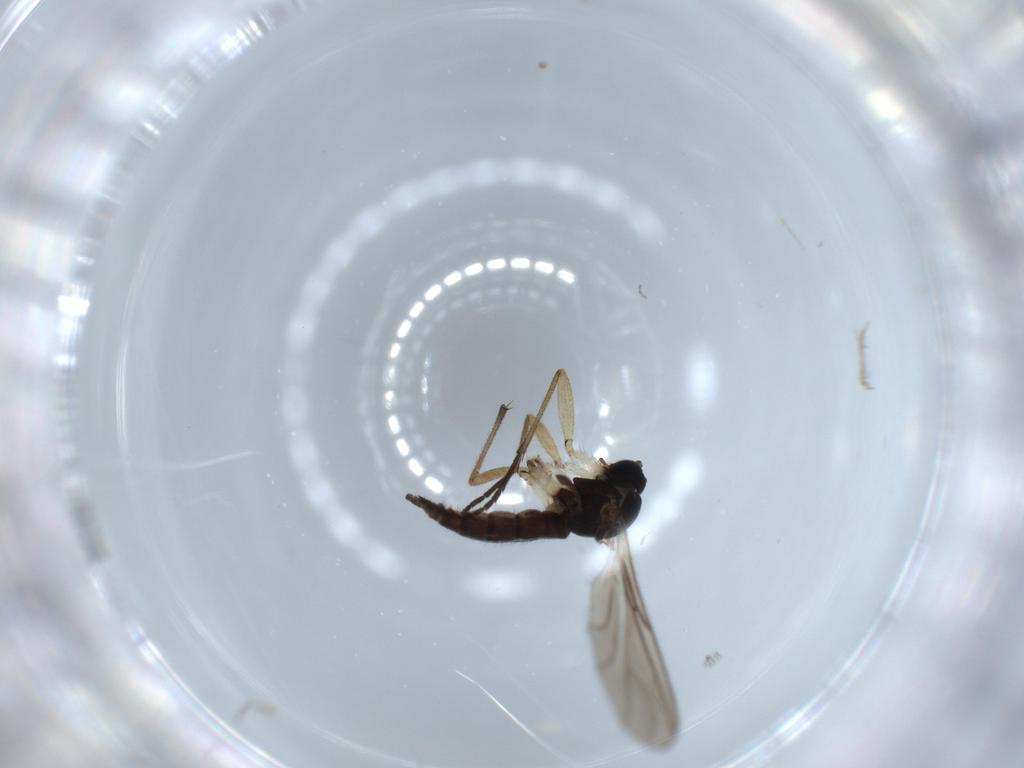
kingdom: Animalia
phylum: Arthropoda
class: Insecta
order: Diptera
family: Sciaridae
